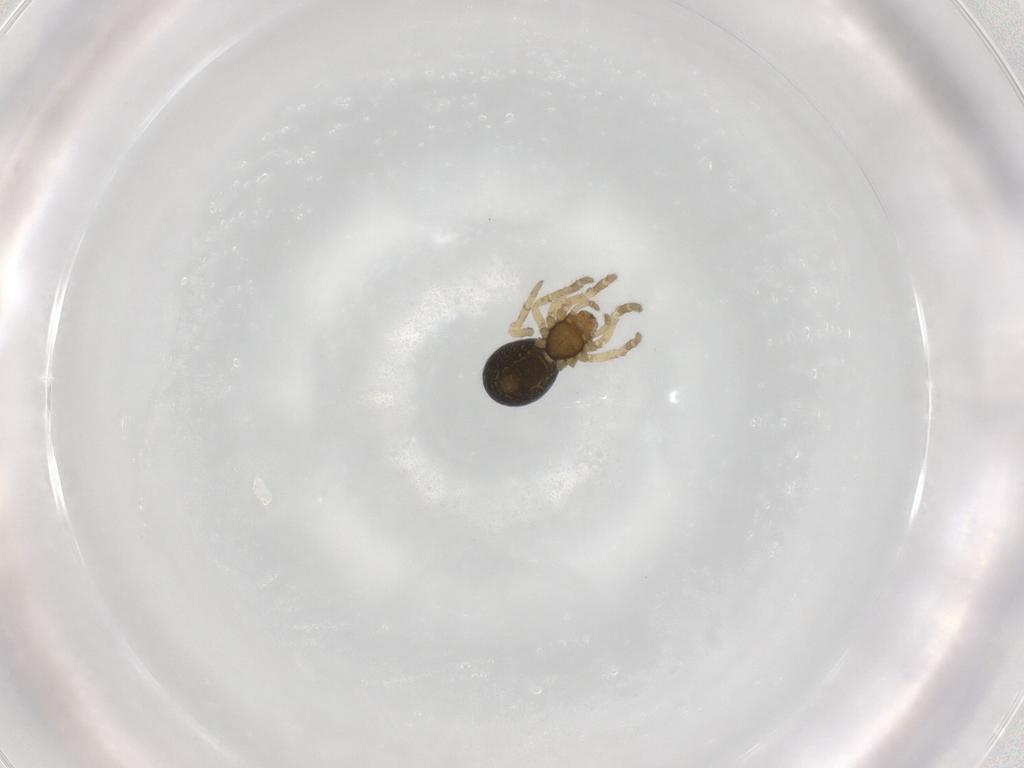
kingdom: Animalia
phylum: Arthropoda
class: Arachnida
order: Araneae
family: Theridiidae
